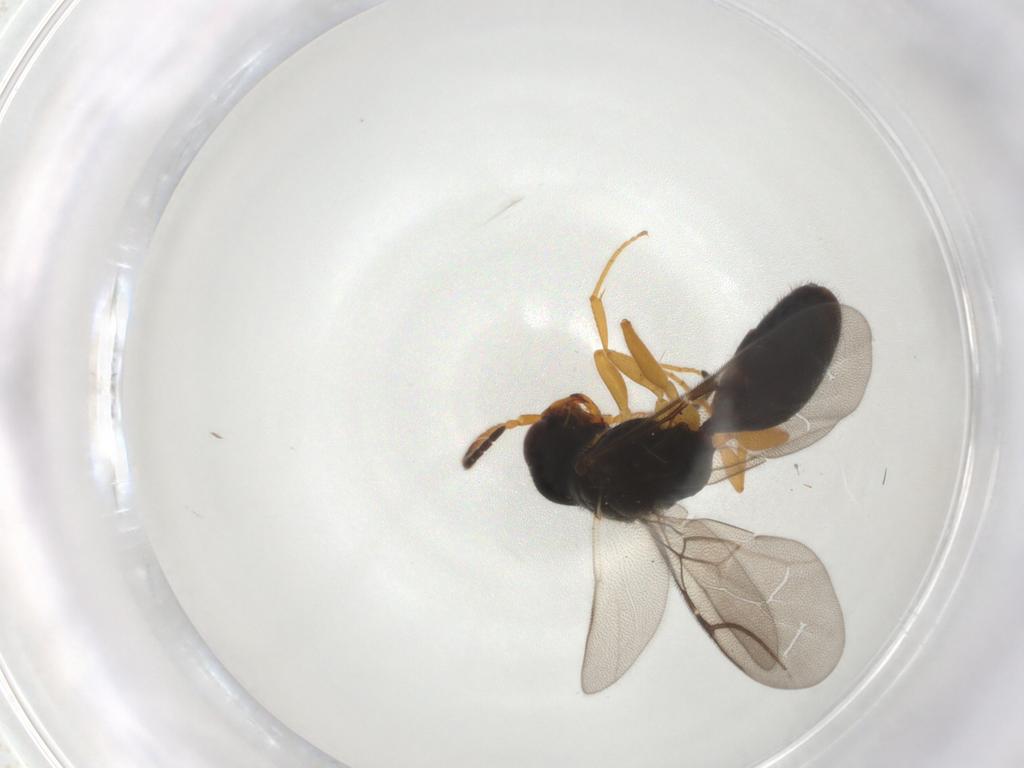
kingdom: Animalia
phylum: Arthropoda
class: Insecta
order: Hymenoptera
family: Bethylidae
